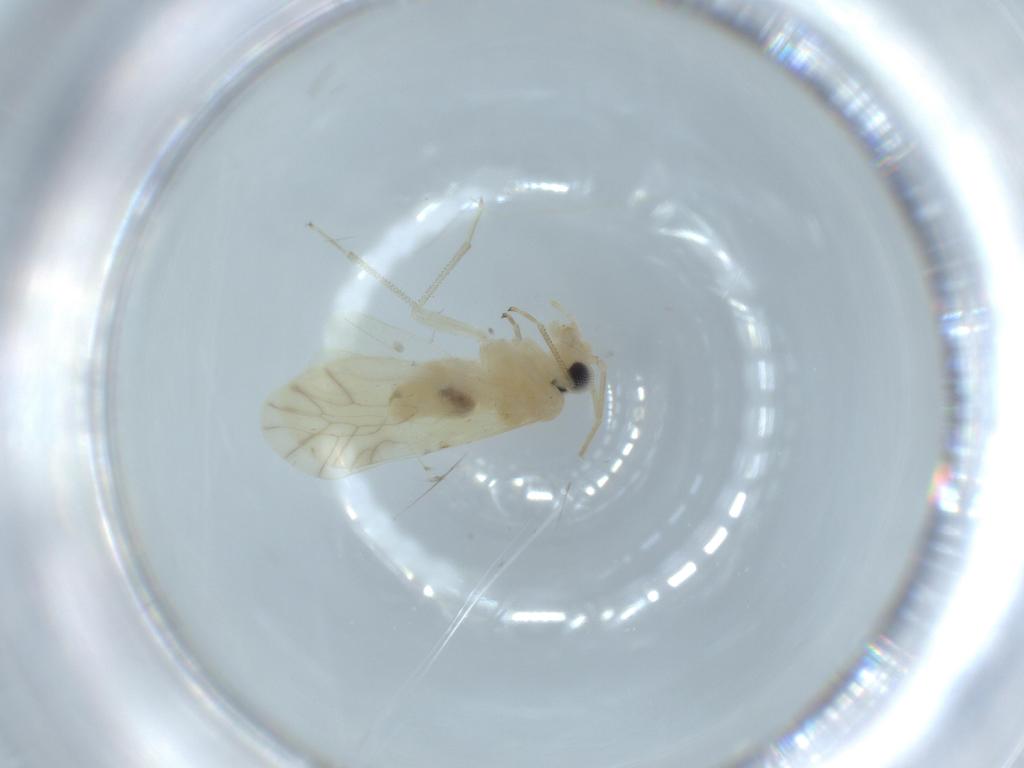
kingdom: Animalia
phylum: Arthropoda
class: Insecta
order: Psocodea
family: Caeciliusidae
